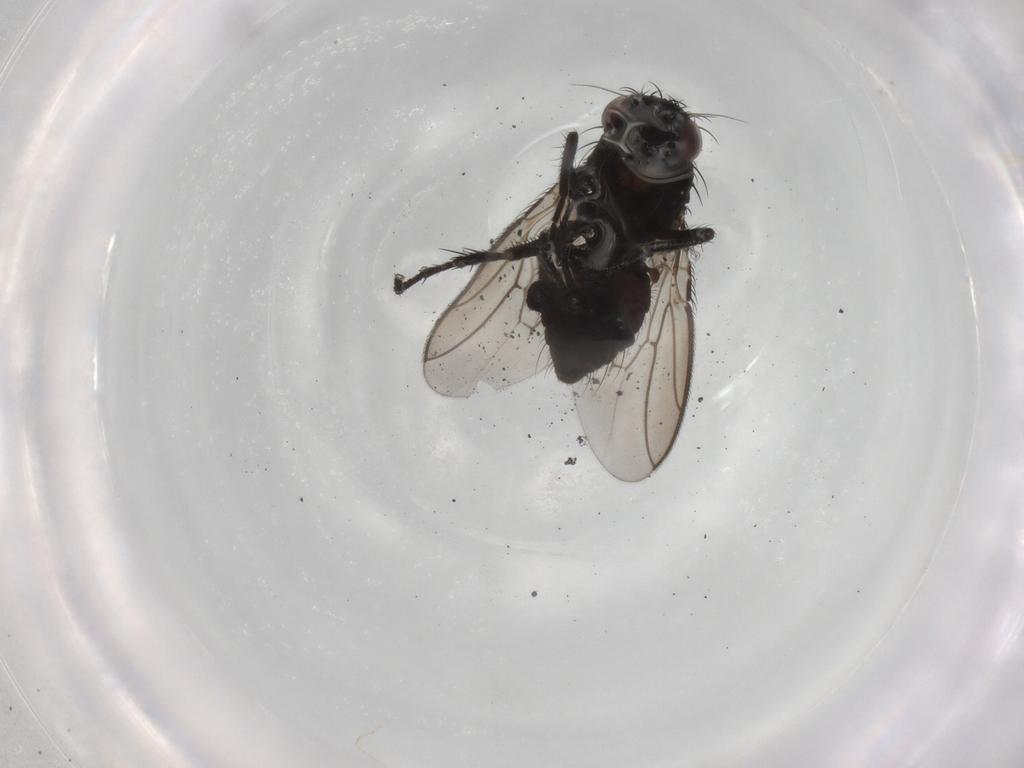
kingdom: Animalia
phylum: Arthropoda
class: Insecta
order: Diptera
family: Sphaeroceridae
